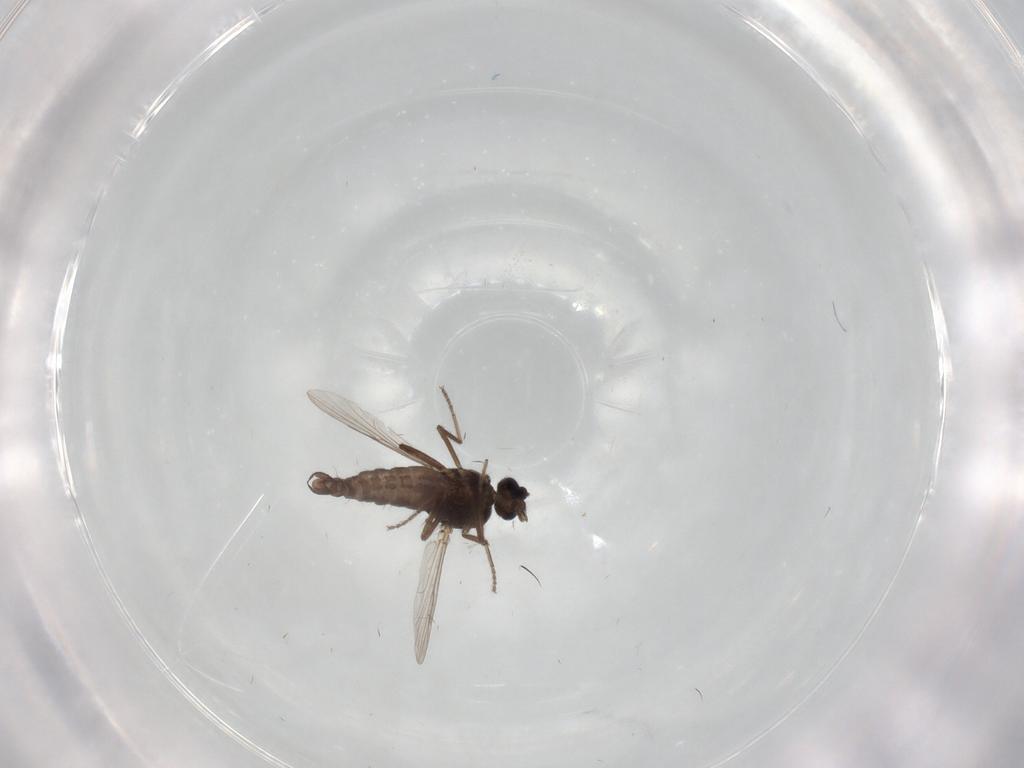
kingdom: Animalia
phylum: Arthropoda
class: Insecta
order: Diptera
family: Ceratopogonidae
